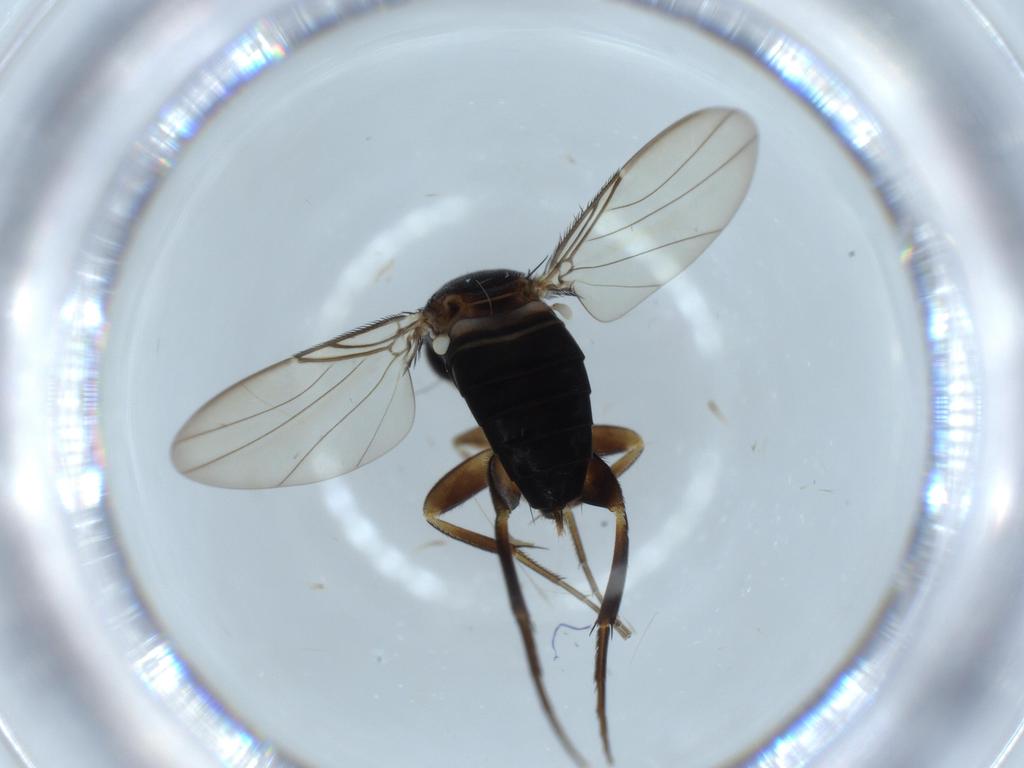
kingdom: Animalia
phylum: Arthropoda
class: Insecta
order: Diptera
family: Phoridae
